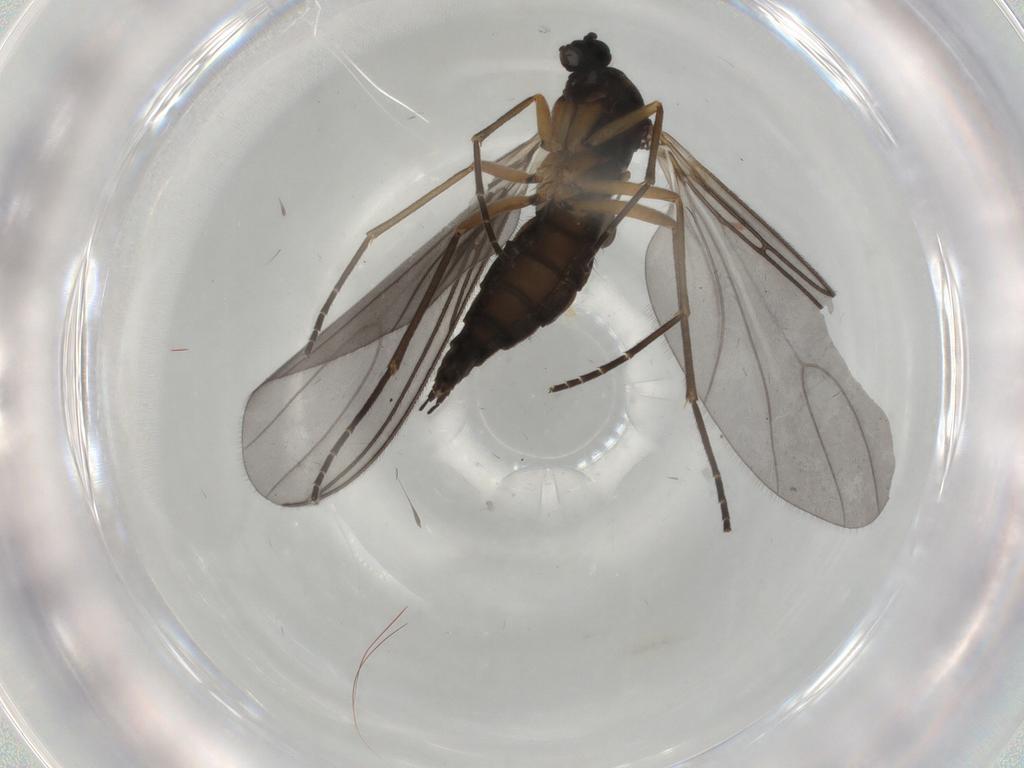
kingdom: Animalia
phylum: Arthropoda
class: Insecta
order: Diptera
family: Sciaridae
